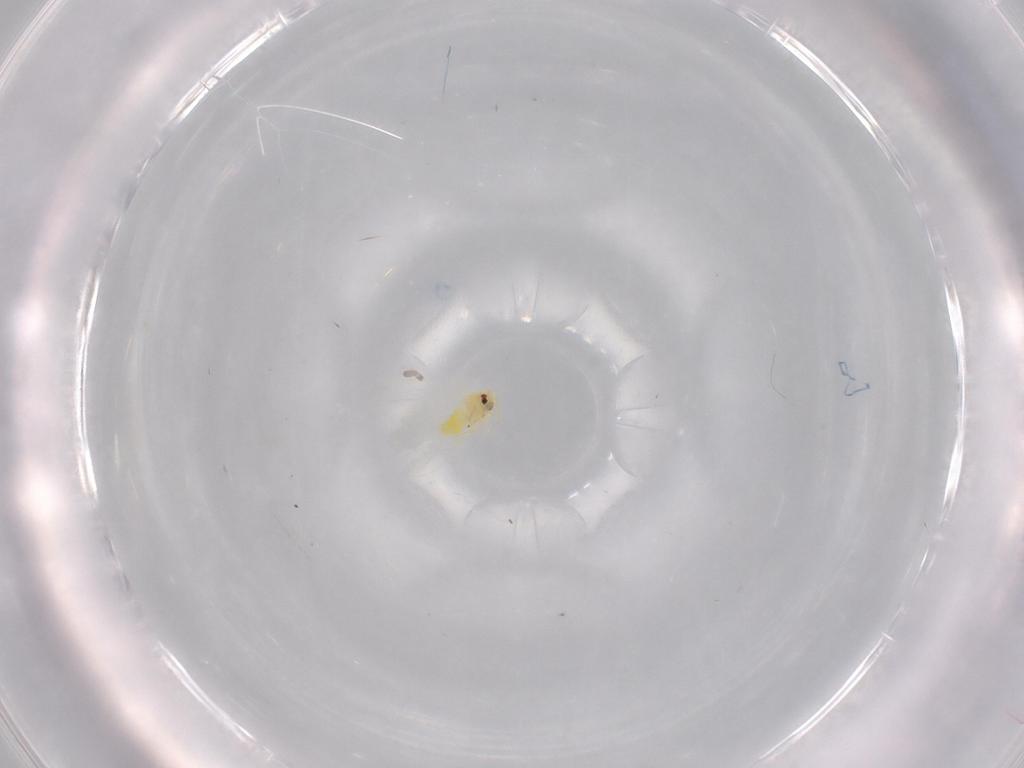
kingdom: Animalia
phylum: Arthropoda
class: Insecta
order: Hemiptera
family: Aleyrodidae
